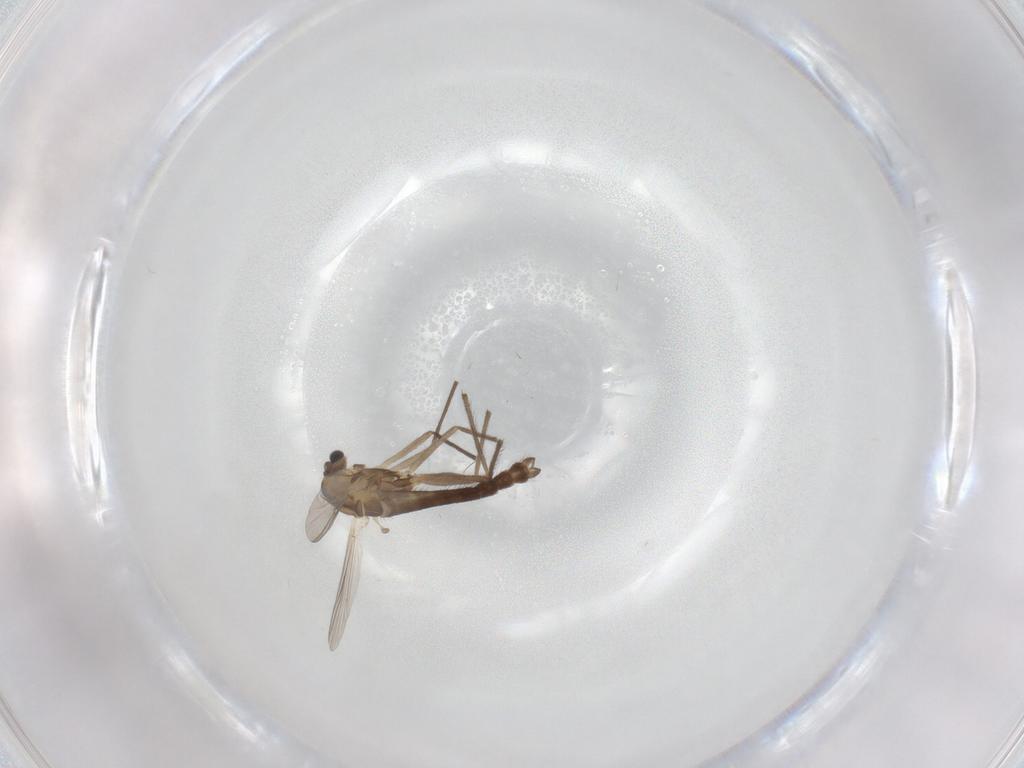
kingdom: Animalia
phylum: Arthropoda
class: Insecta
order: Diptera
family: Chironomidae
